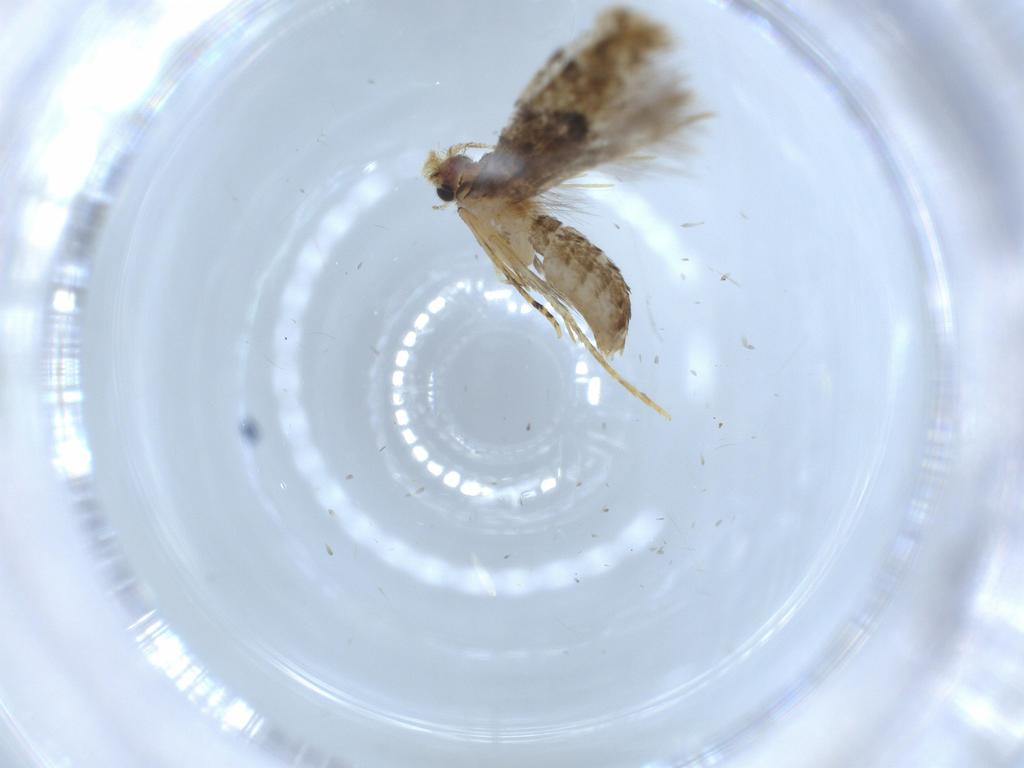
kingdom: Animalia
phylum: Arthropoda
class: Insecta
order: Lepidoptera
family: Tineidae
